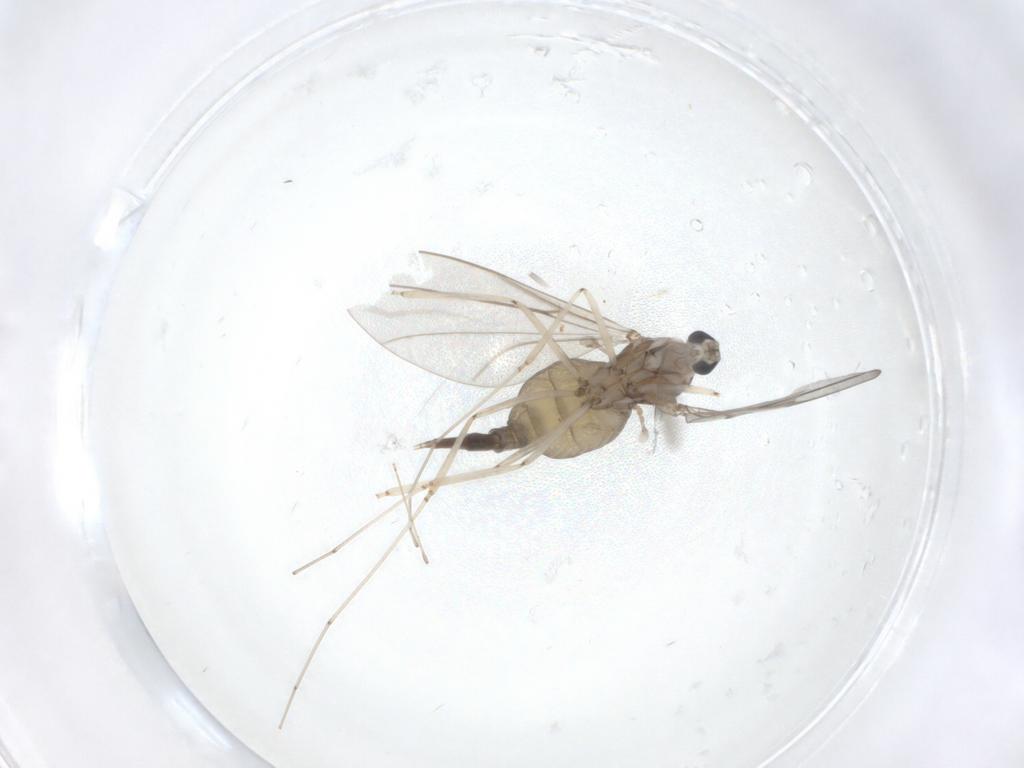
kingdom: Animalia
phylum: Arthropoda
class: Insecta
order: Diptera
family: Cecidomyiidae
